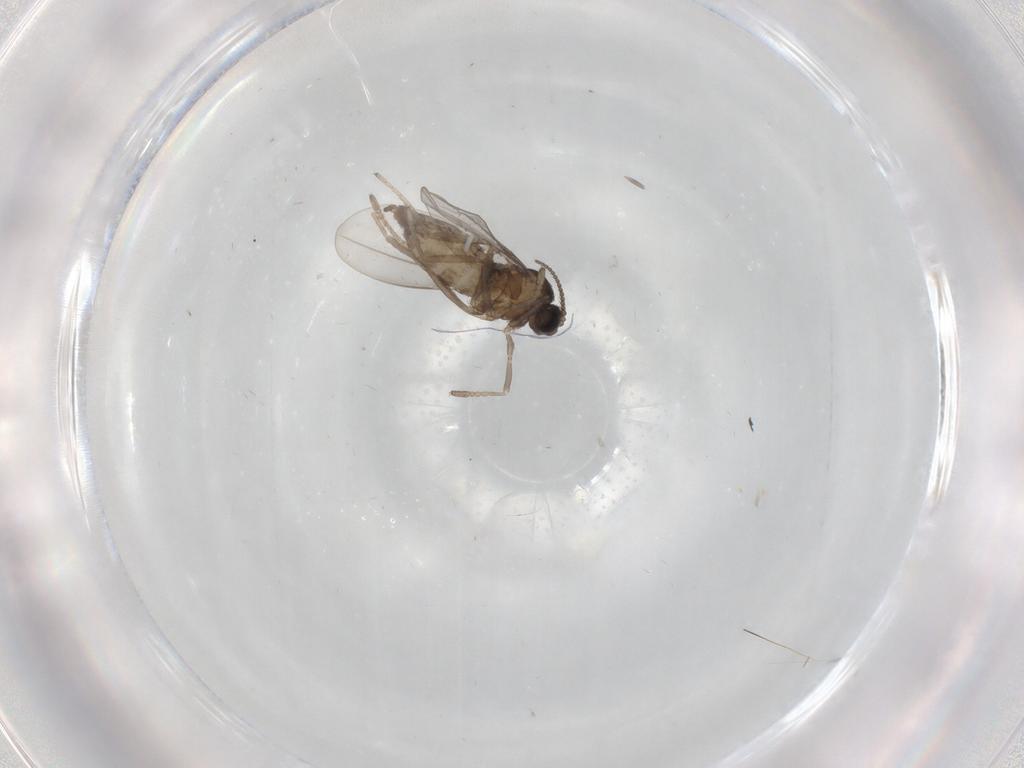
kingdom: Animalia
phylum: Arthropoda
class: Insecta
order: Diptera
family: Cecidomyiidae
